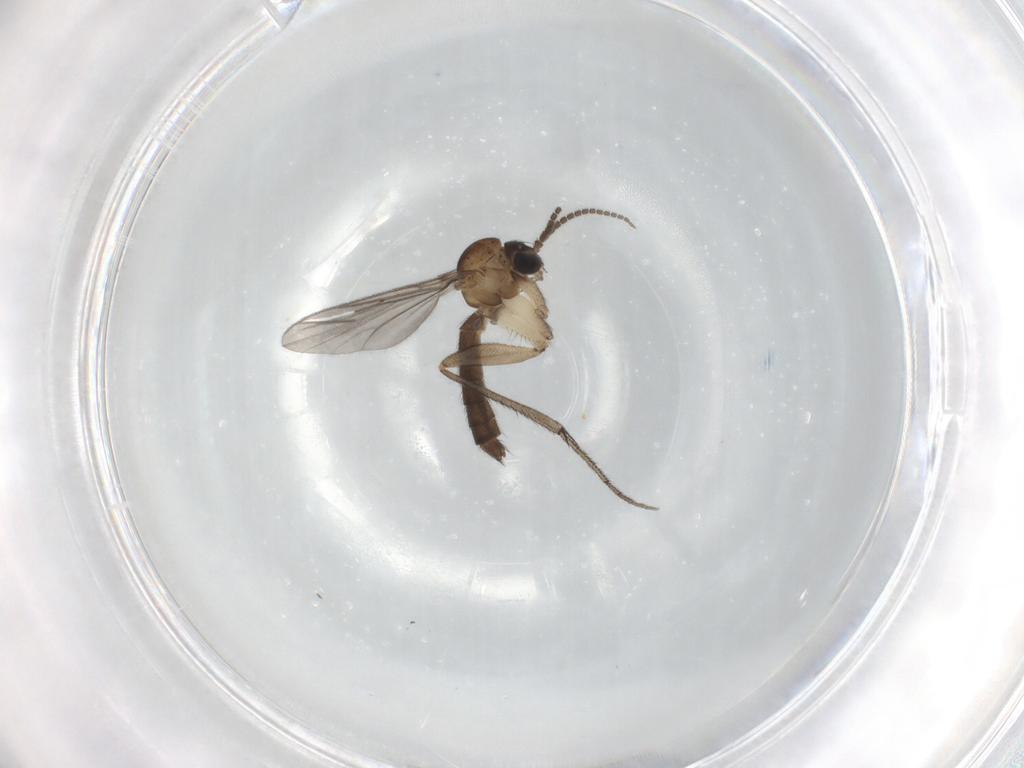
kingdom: Animalia
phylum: Arthropoda
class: Insecta
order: Diptera
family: Mycetophilidae
